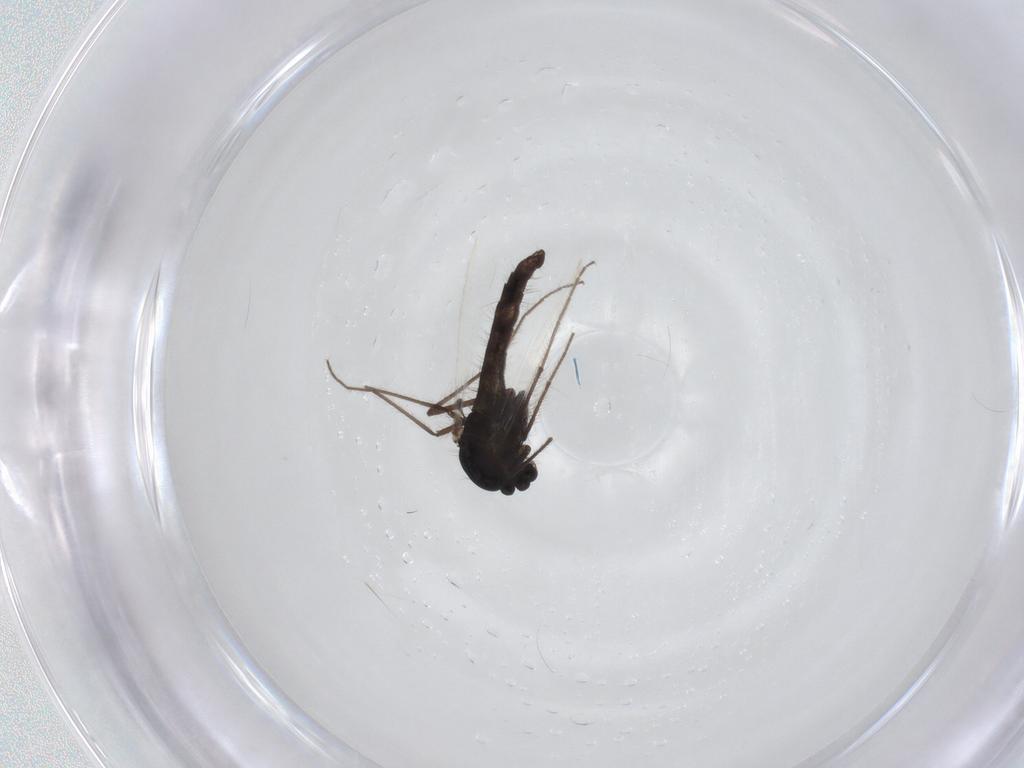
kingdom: Animalia
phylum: Arthropoda
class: Insecta
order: Diptera
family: Chironomidae
